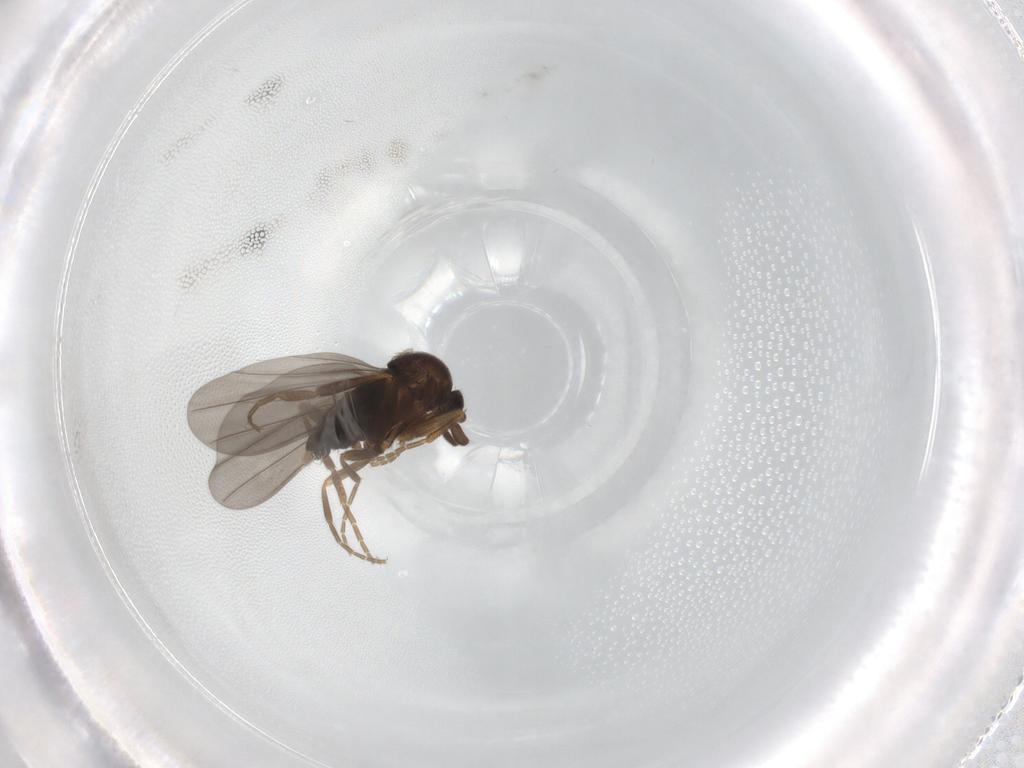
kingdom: Animalia
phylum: Arthropoda
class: Insecta
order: Diptera
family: Phoridae
